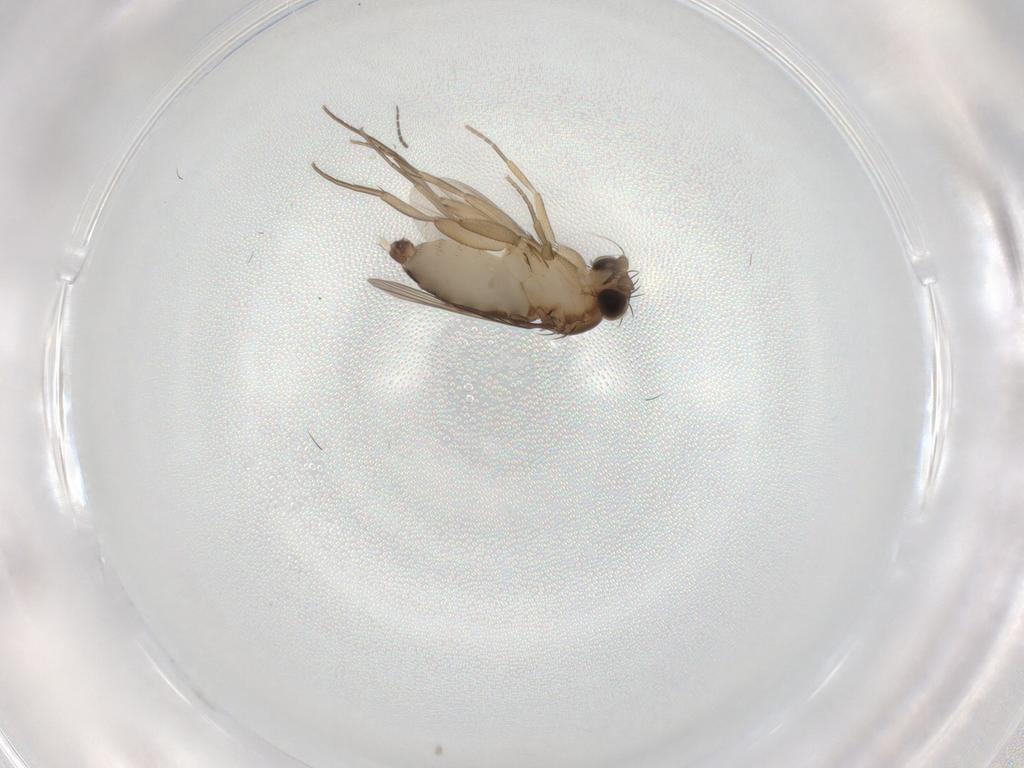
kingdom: Animalia
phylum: Arthropoda
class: Insecta
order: Diptera
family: Phoridae
